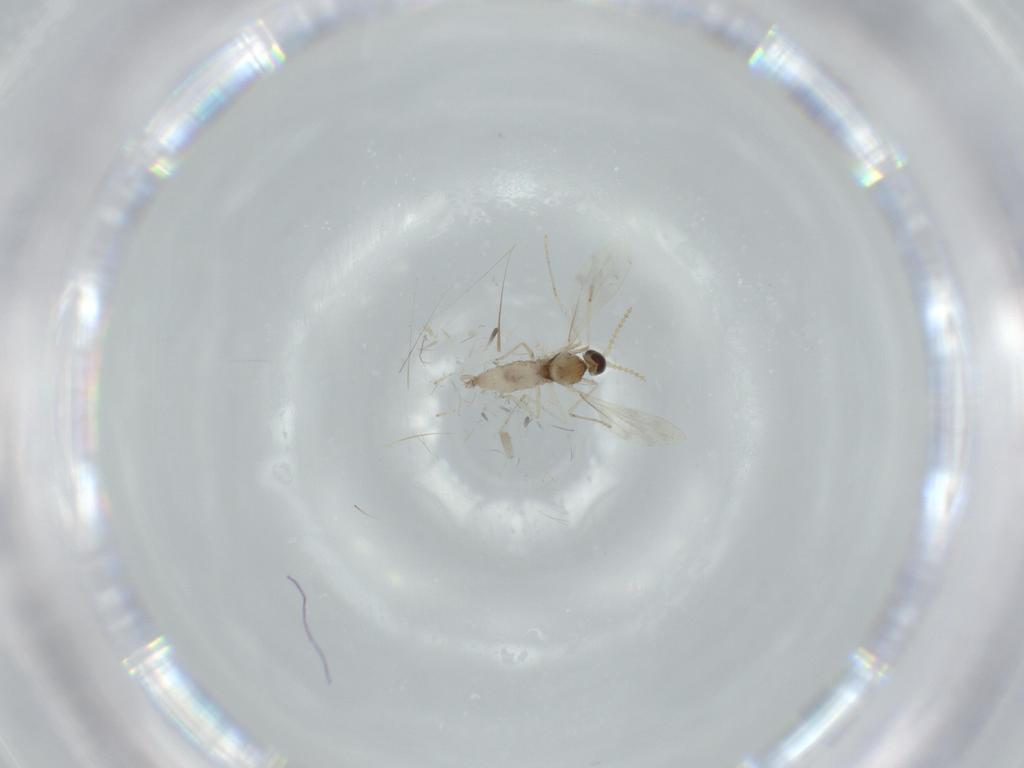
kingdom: Animalia
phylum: Arthropoda
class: Insecta
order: Diptera
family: Cecidomyiidae
